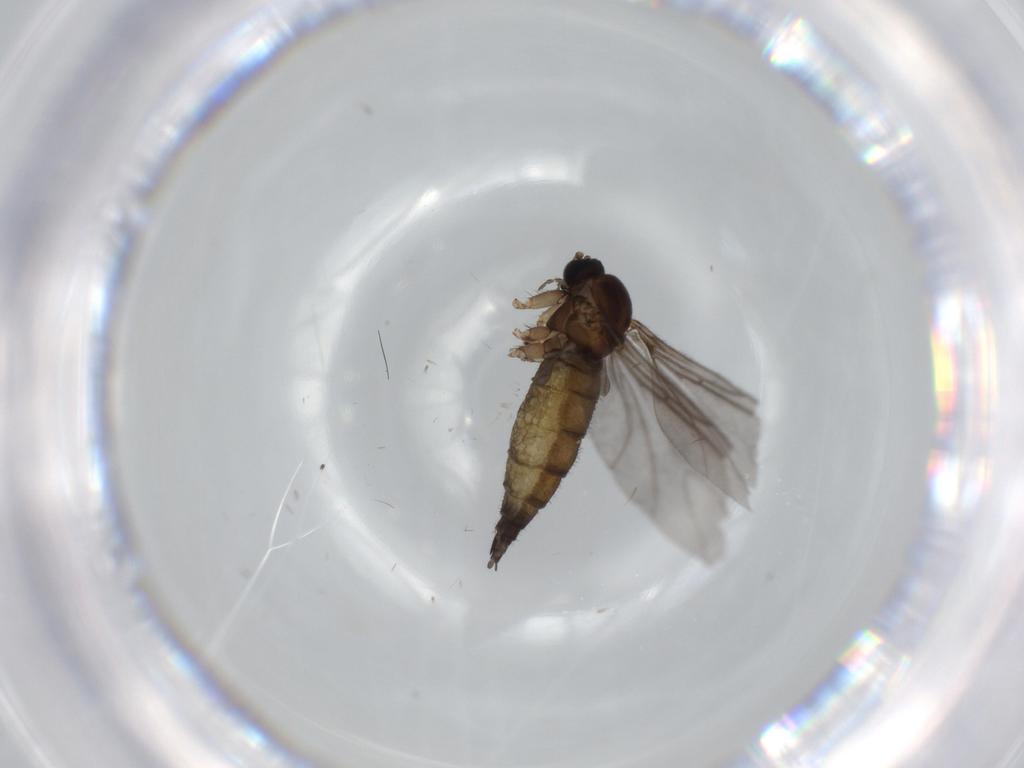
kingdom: Animalia
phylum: Arthropoda
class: Insecta
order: Diptera
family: Sciaridae
